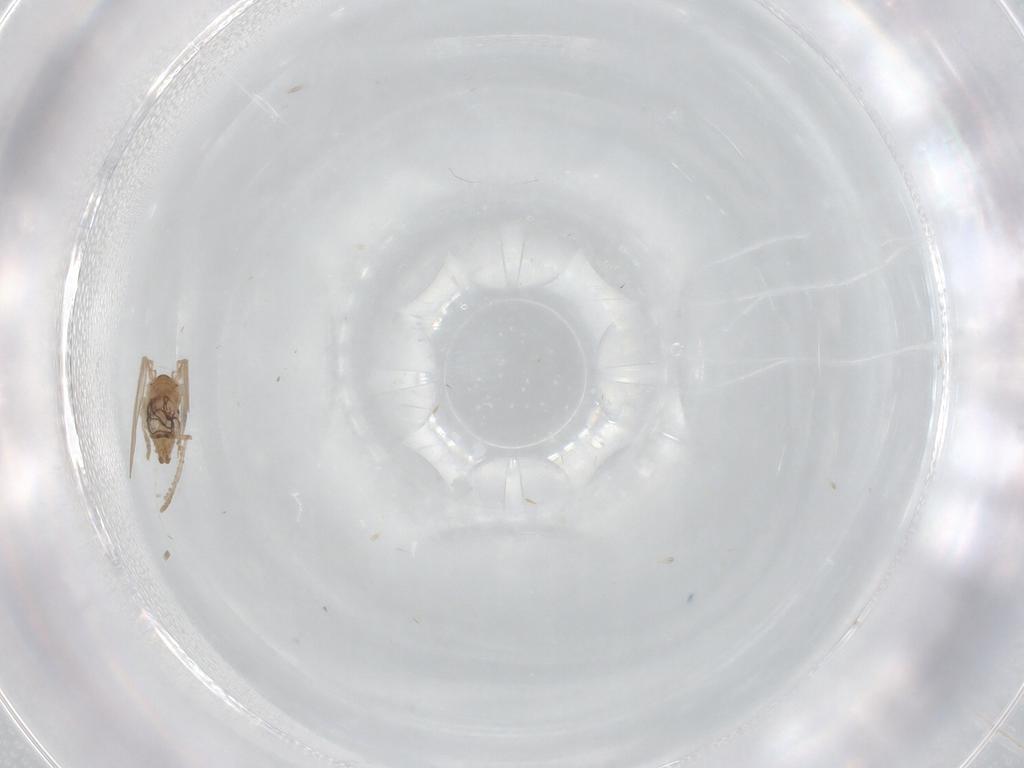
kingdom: Animalia
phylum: Arthropoda
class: Insecta
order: Diptera
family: Psychodidae
